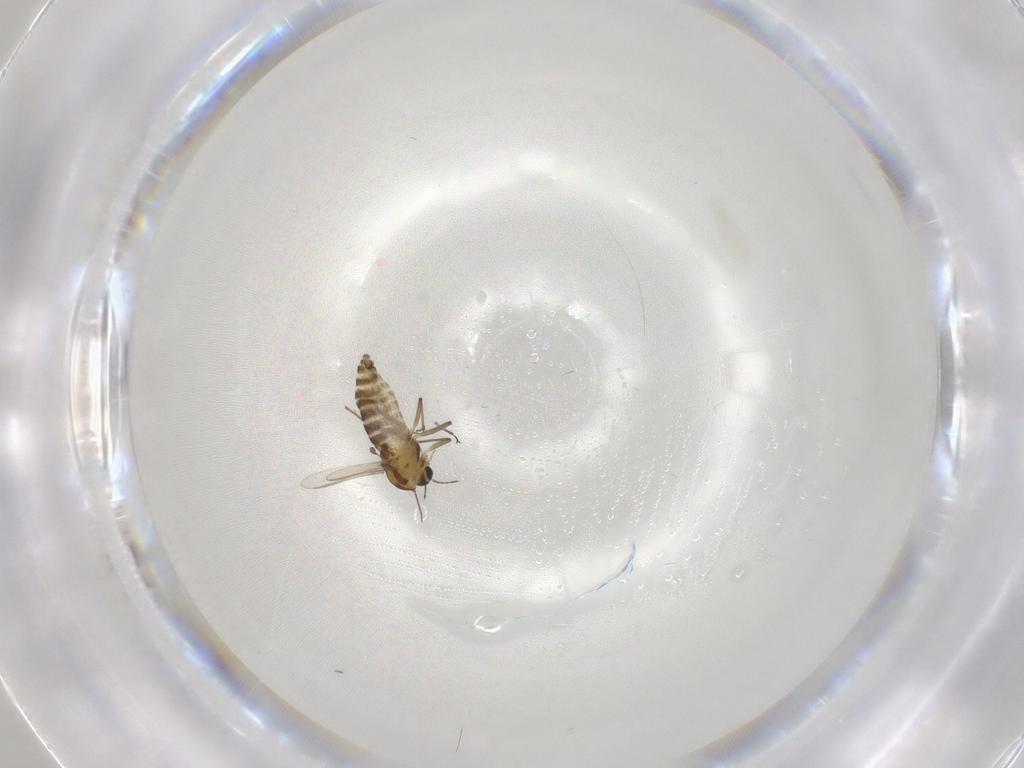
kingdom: Animalia
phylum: Arthropoda
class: Insecta
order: Diptera
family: Chironomidae
